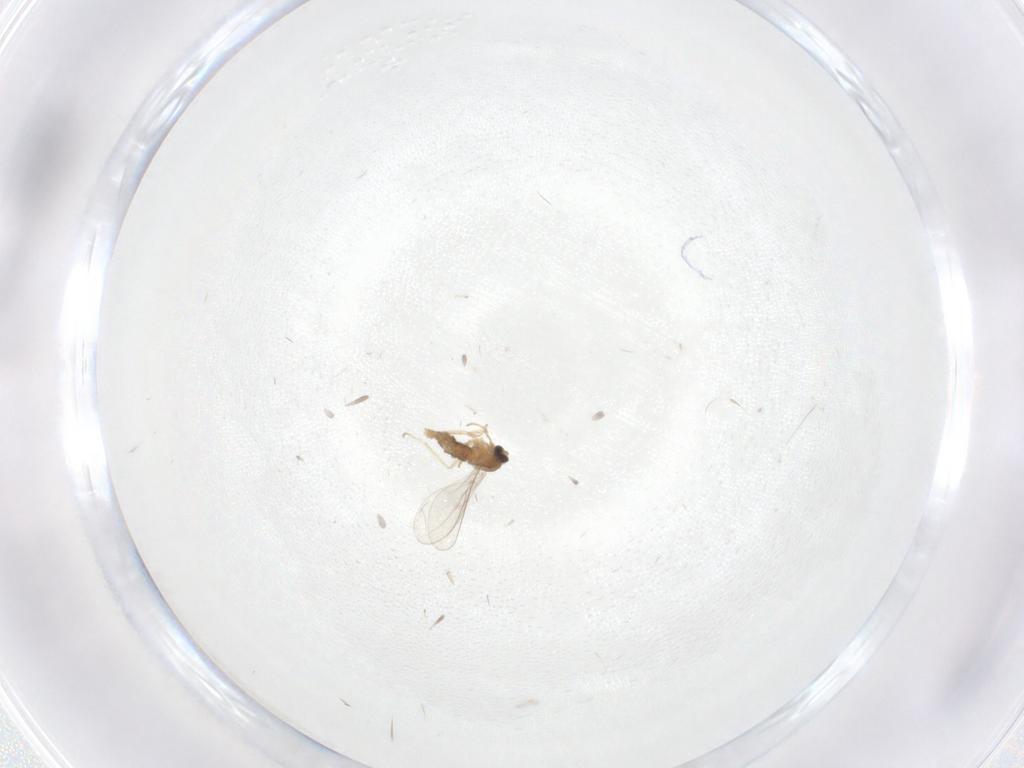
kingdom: Animalia
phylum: Arthropoda
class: Insecta
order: Diptera
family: Cecidomyiidae
